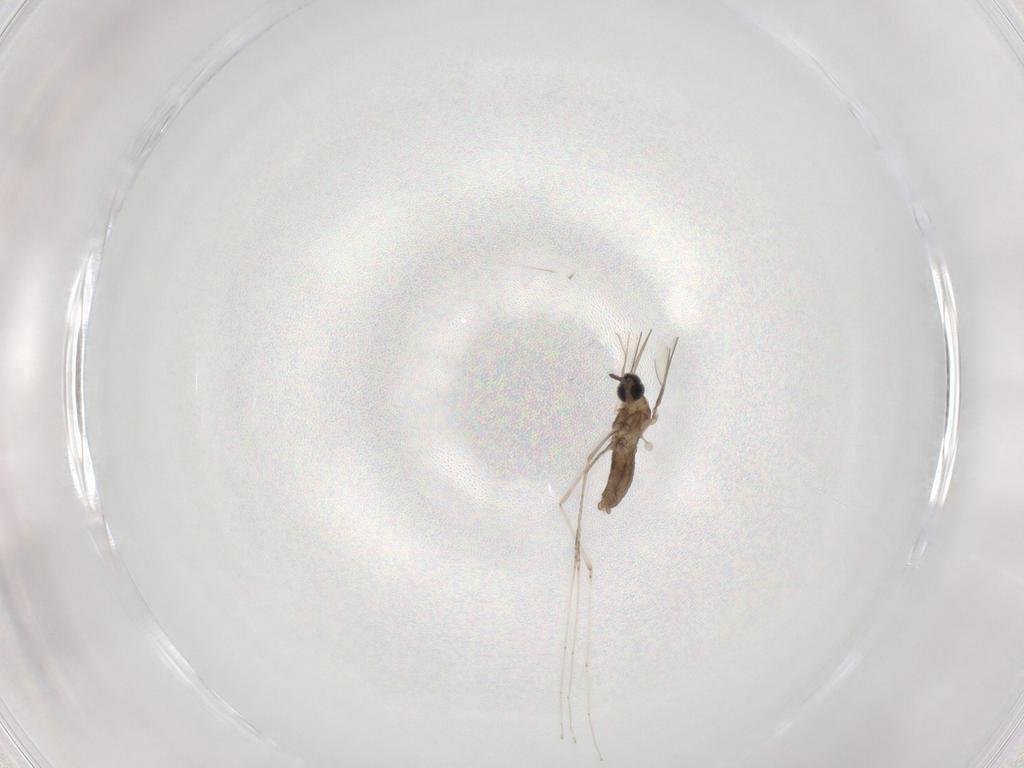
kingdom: Animalia
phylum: Arthropoda
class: Insecta
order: Diptera
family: Cecidomyiidae
